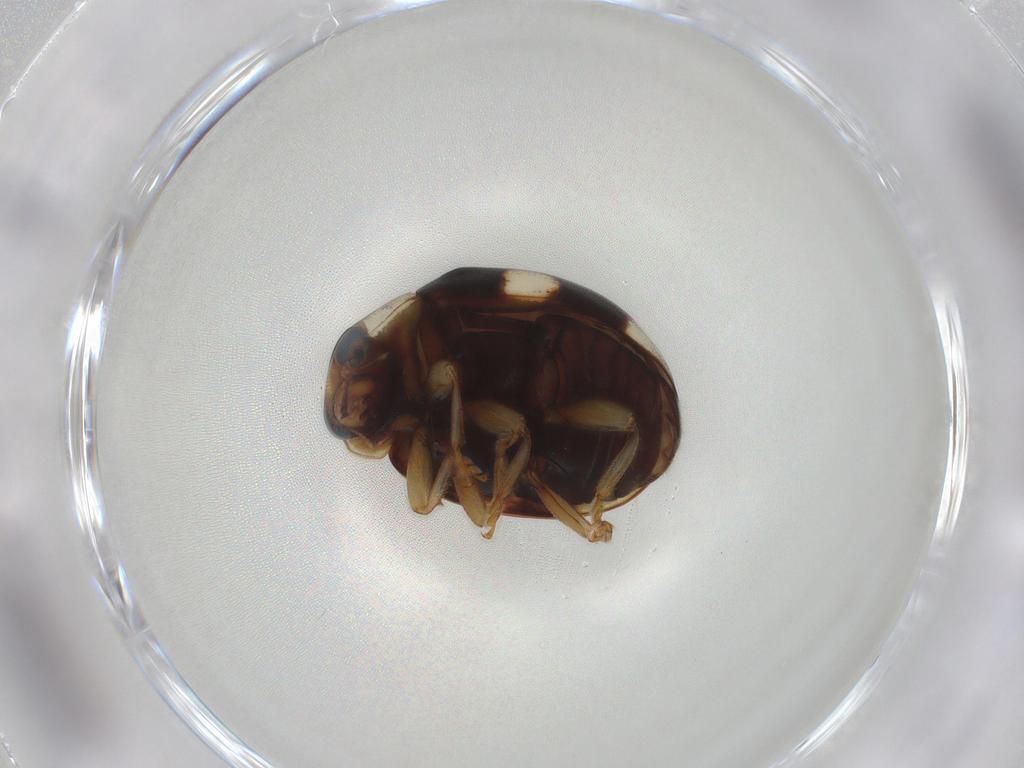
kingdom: Animalia
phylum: Arthropoda
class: Insecta
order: Coleoptera
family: Coccinellidae
